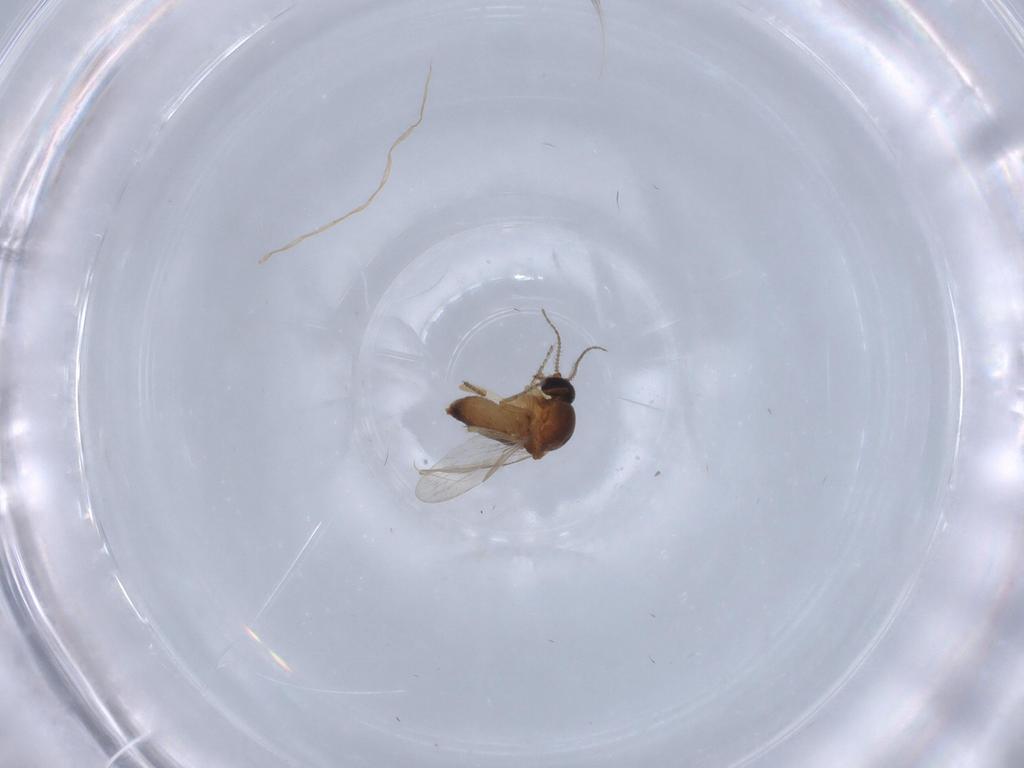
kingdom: Animalia
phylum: Arthropoda
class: Insecta
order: Diptera
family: Ceratopogonidae
